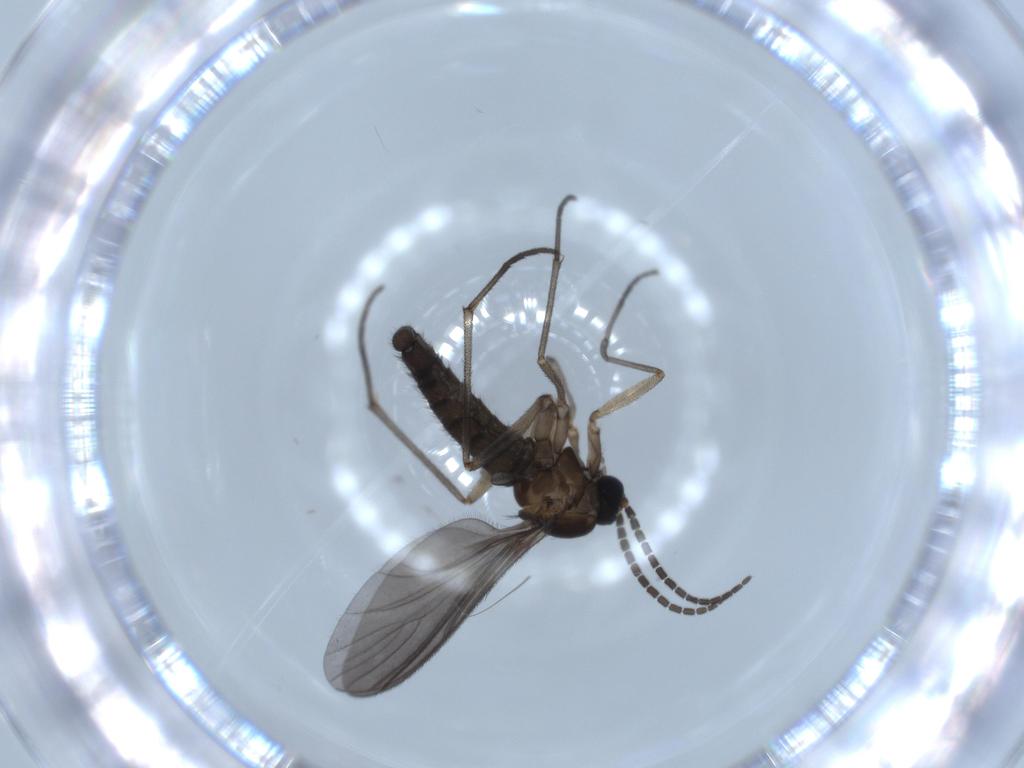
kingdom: Animalia
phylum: Arthropoda
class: Insecta
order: Diptera
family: Sciaridae
